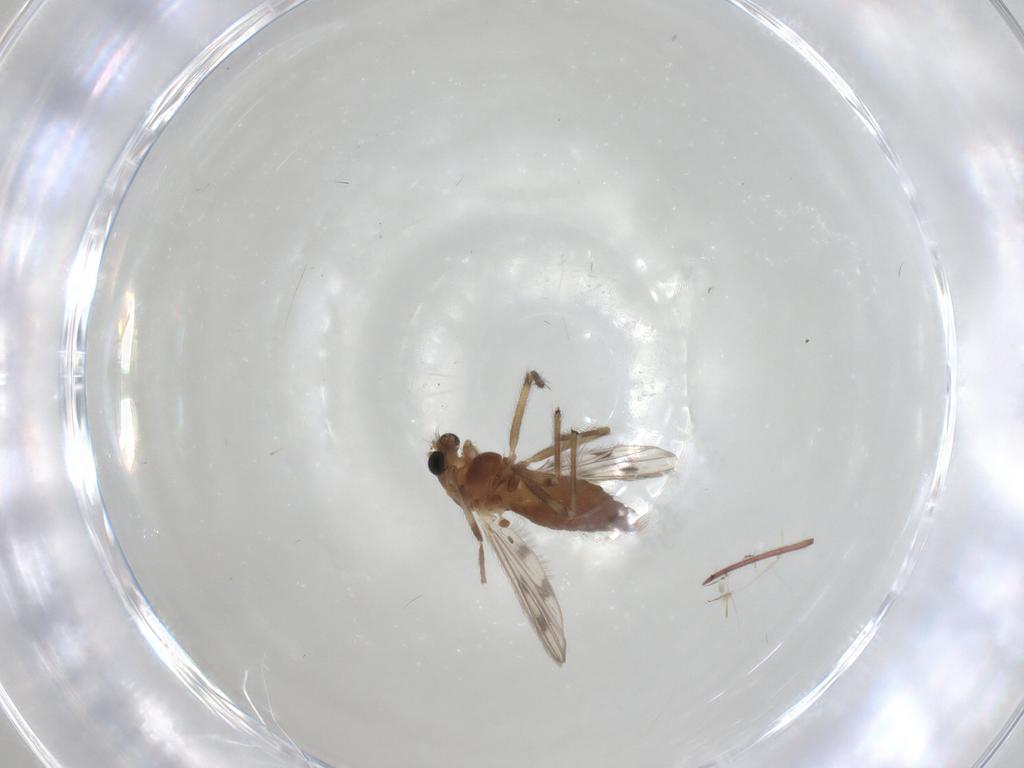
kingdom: Animalia
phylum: Arthropoda
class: Insecta
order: Diptera
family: Chironomidae
